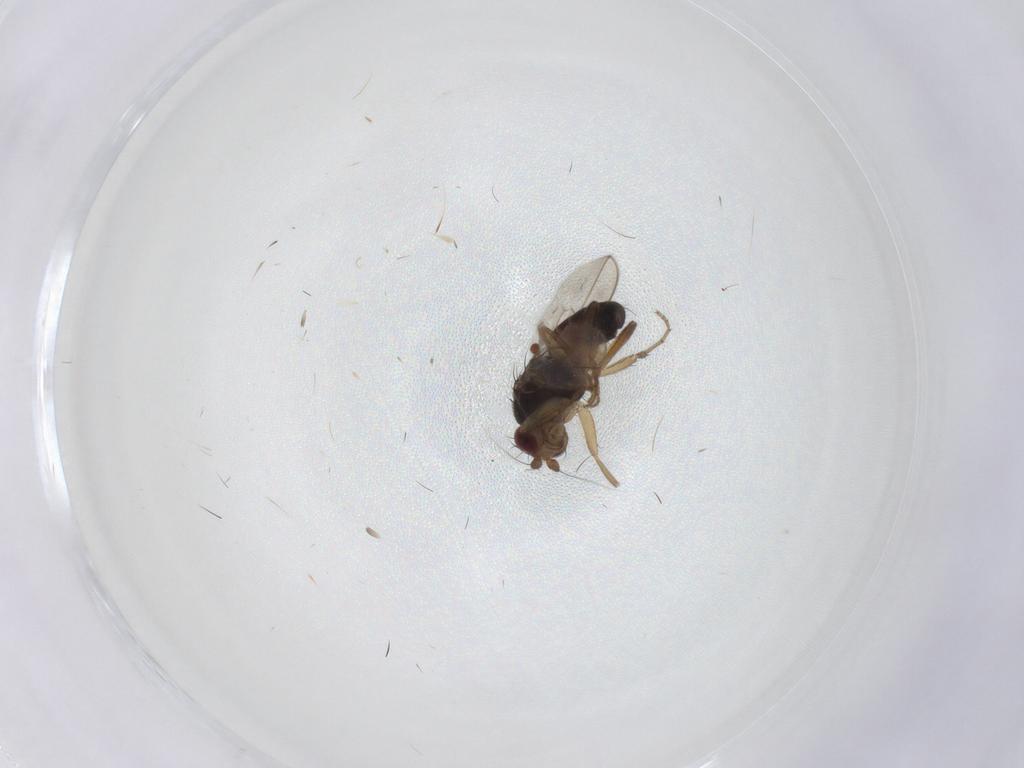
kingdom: Animalia
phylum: Arthropoda
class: Insecta
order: Diptera
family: Sphaeroceridae
